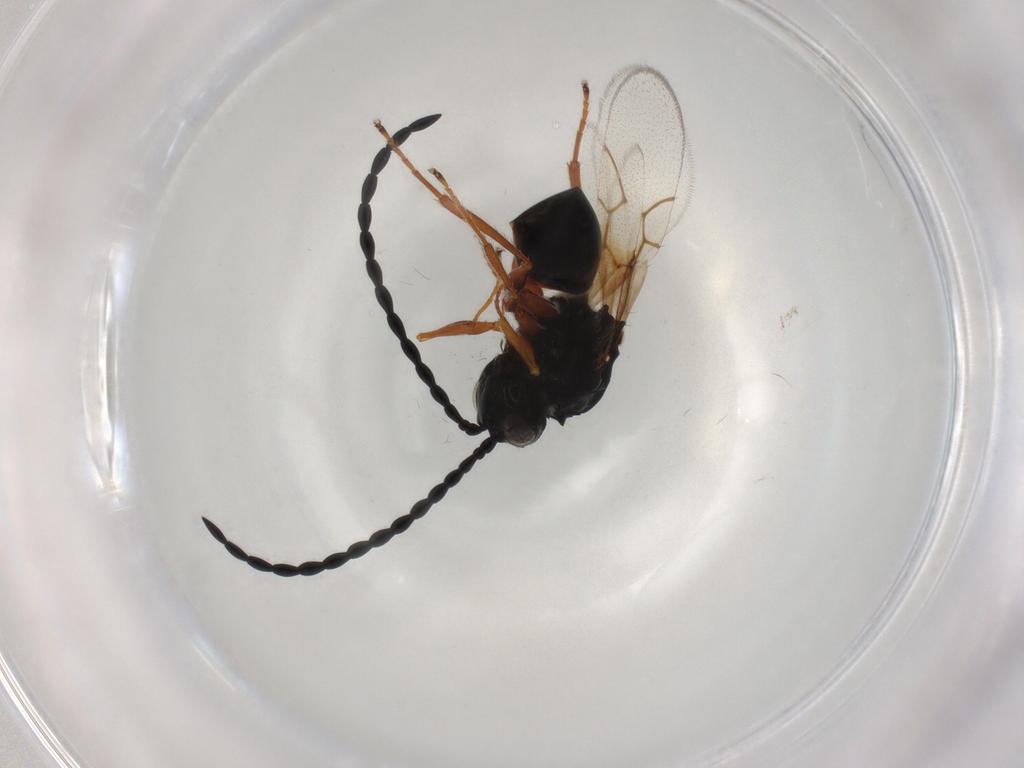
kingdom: Animalia
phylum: Arthropoda
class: Insecta
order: Hymenoptera
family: Figitidae
